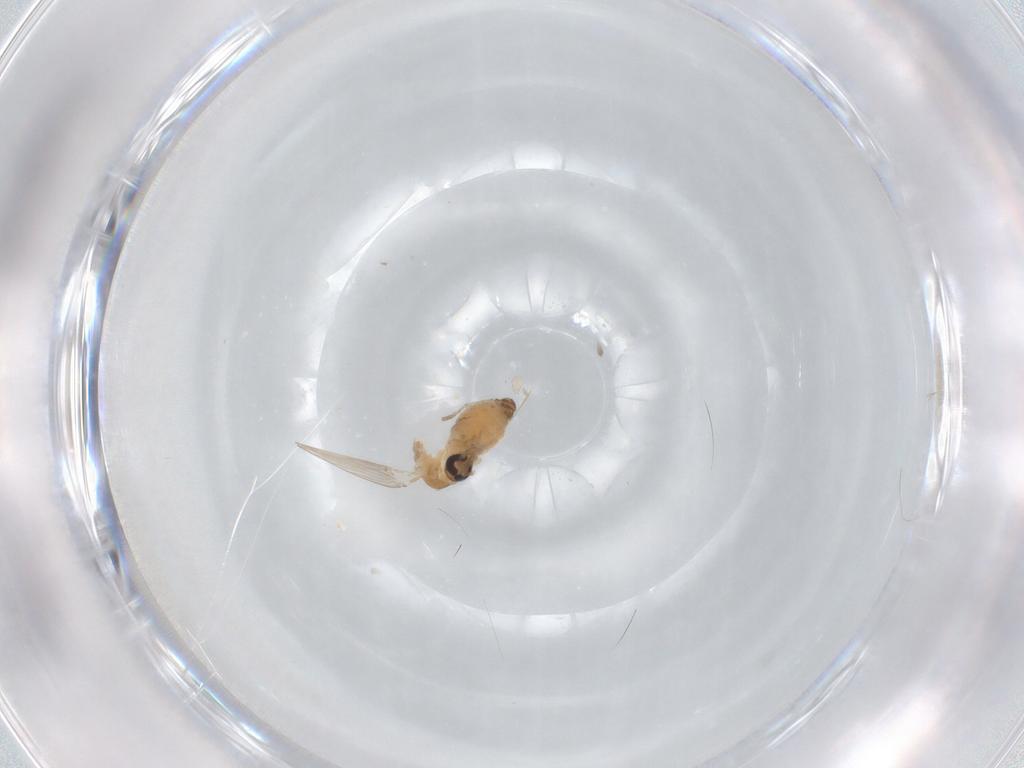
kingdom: Animalia
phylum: Arthropoda
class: Insecta
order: Diptera
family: Psychodidae
